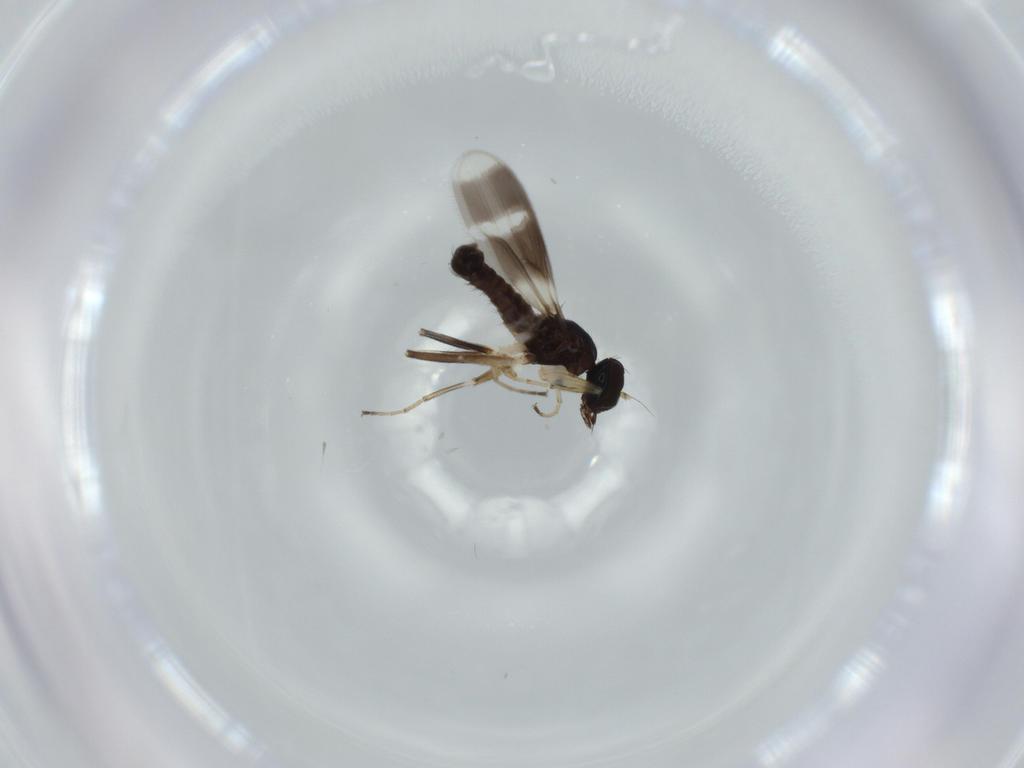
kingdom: Animalia
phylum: Arthropoda
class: Insecta
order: Diptera
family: Hybotidae
